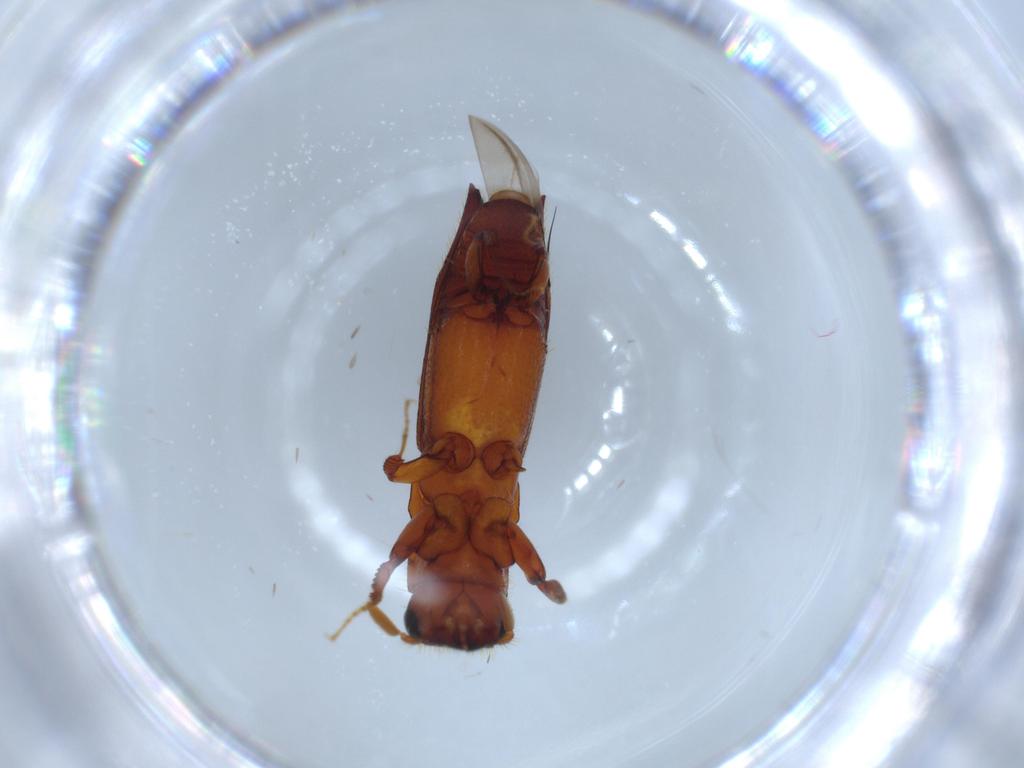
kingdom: Animalia
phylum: Arthropoda
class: Insecta
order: Coleoptera
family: Curculionidae
